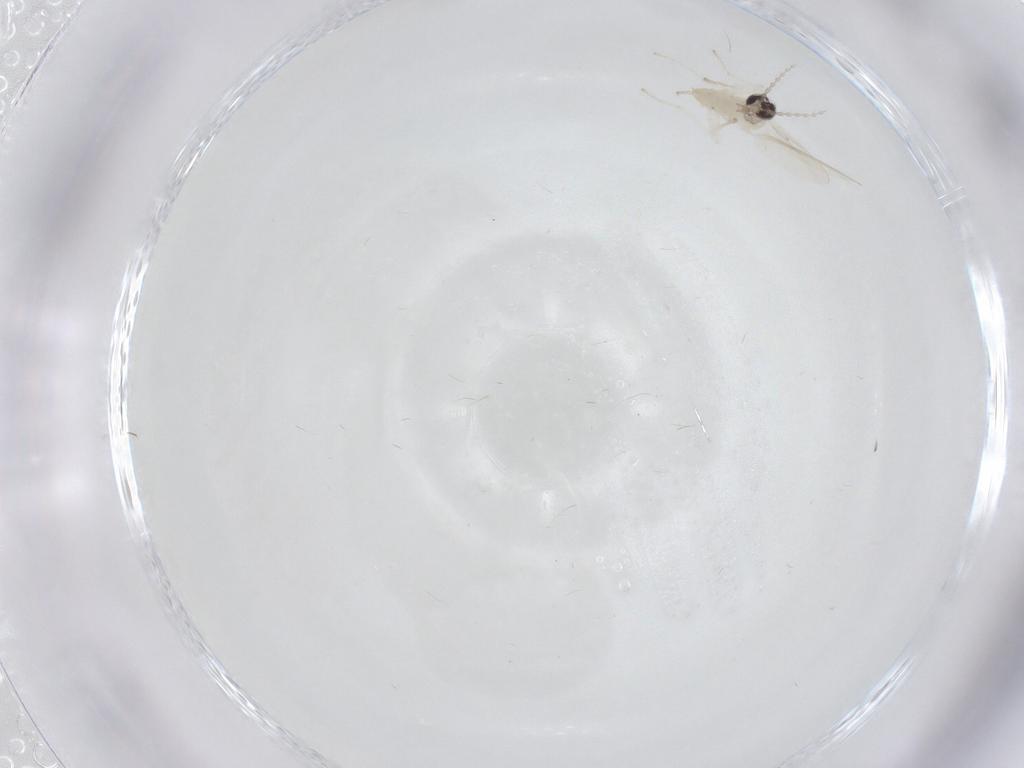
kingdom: Animalia
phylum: Arthropoda
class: Insecta
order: Diptera
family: Cecidomyiidae
